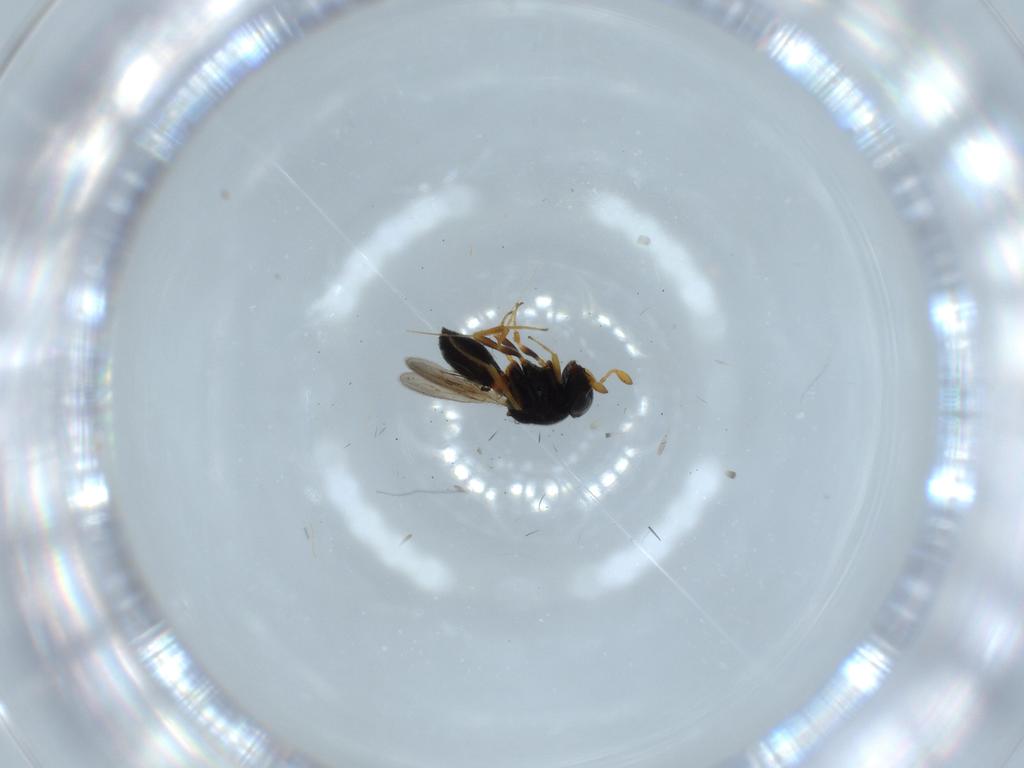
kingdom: Animalia
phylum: Arthropoda
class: Insecta
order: Hymenoptera
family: Scelionidae
